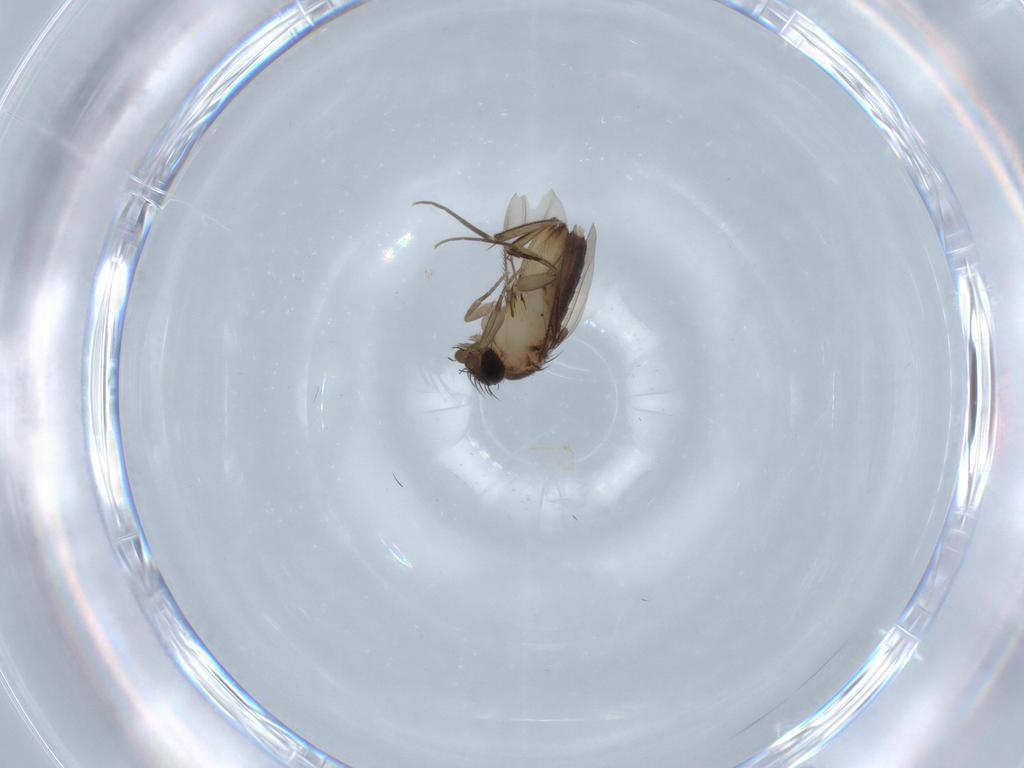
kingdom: Animalia
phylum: Arthropoda
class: Insecta
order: Diptera
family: Phoridae
